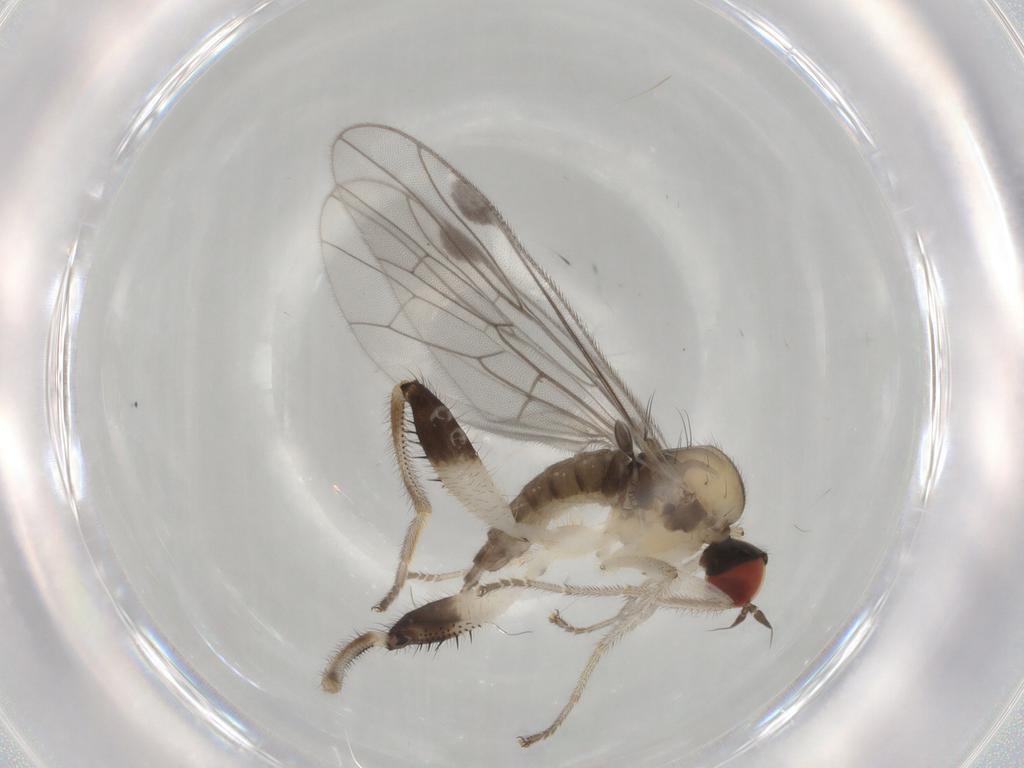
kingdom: Animalia
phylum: Arthropoda
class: Insecta
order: Diptera
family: Hybotidae
